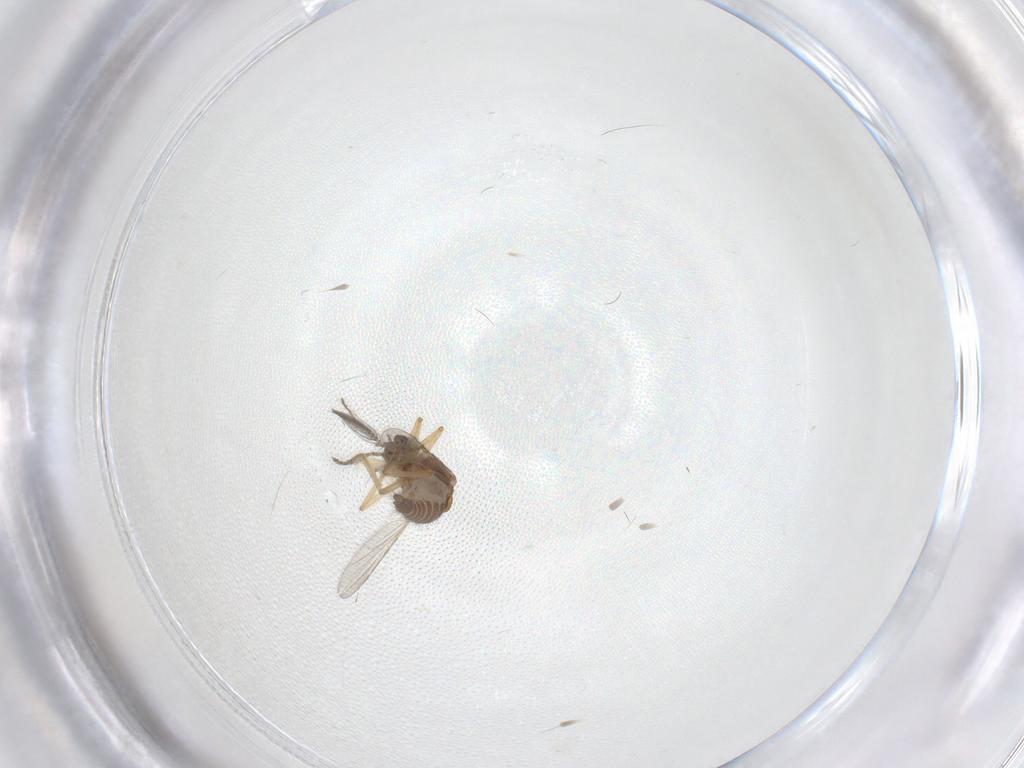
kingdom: Animalia
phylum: Arthropoda
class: Insecta
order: Diptera
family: Ceratopogonidae
